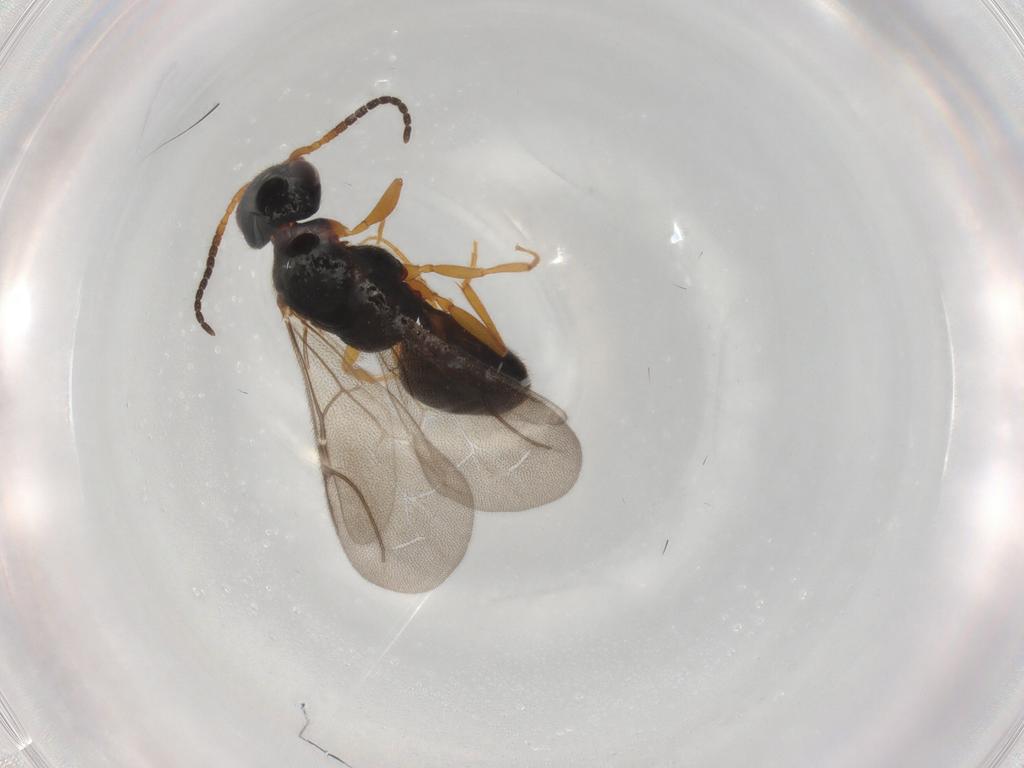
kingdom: Animalia
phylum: Arthropoda
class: Insecta
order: Hymenoptera
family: Bethylidae
